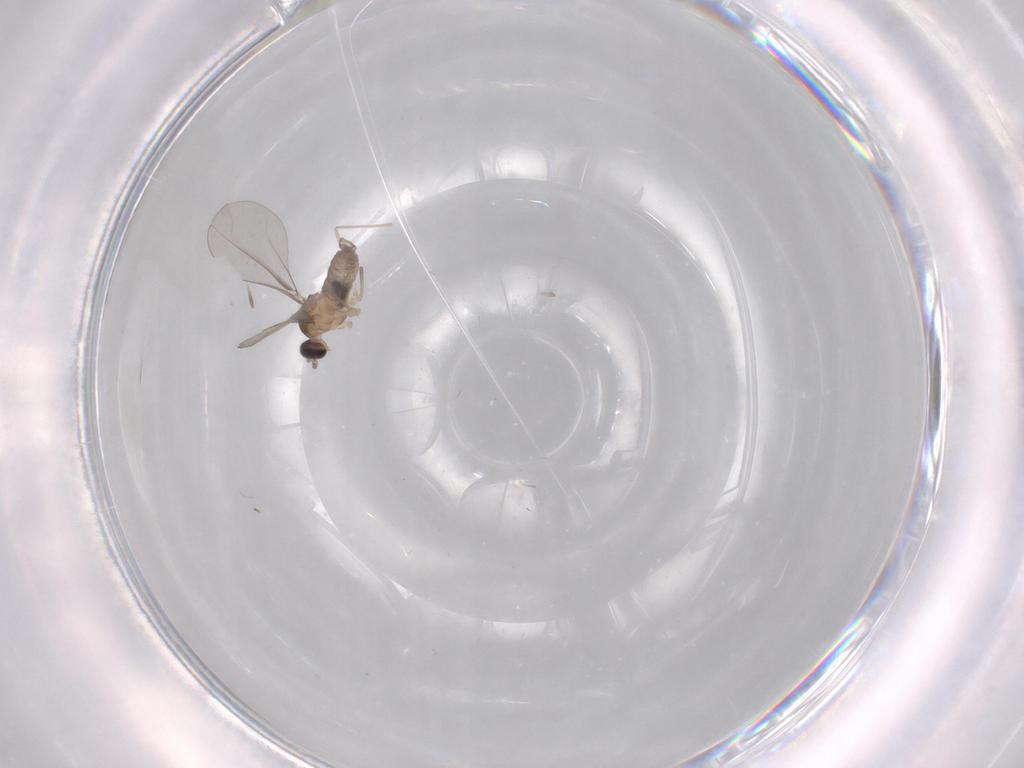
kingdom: Animalia
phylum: Arthropoda
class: Insecta
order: Diptera
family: Cecidomyiidae
